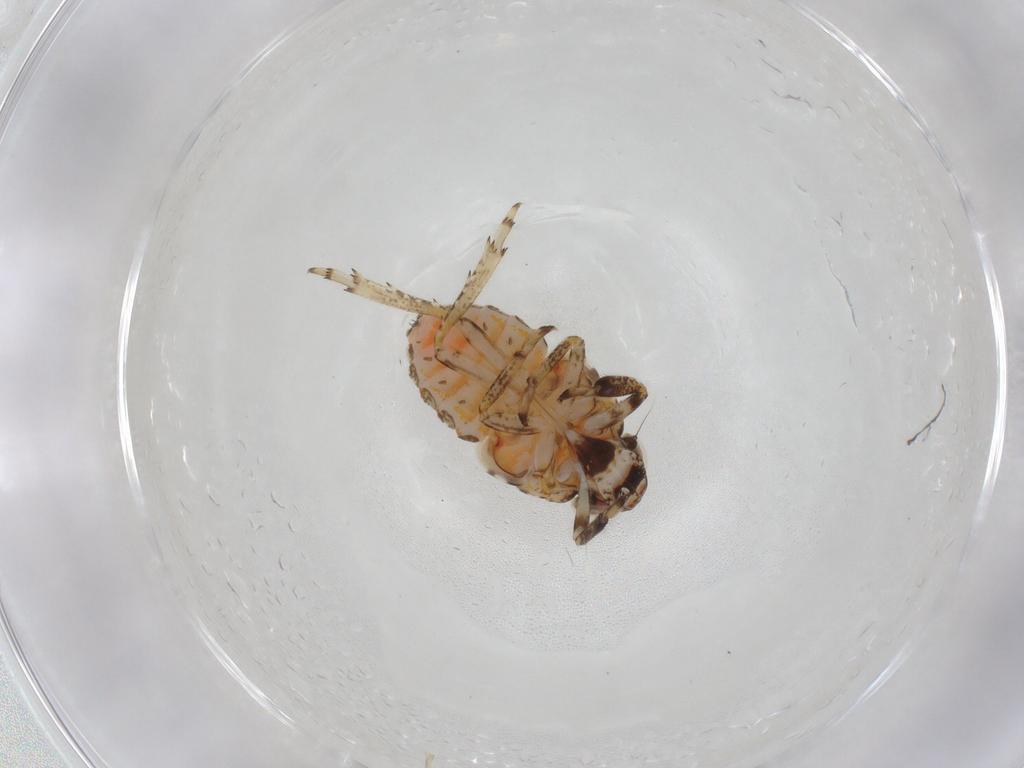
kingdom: Animalia
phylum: Arthropoda
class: Insecta
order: Hemiptera
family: Issidae
